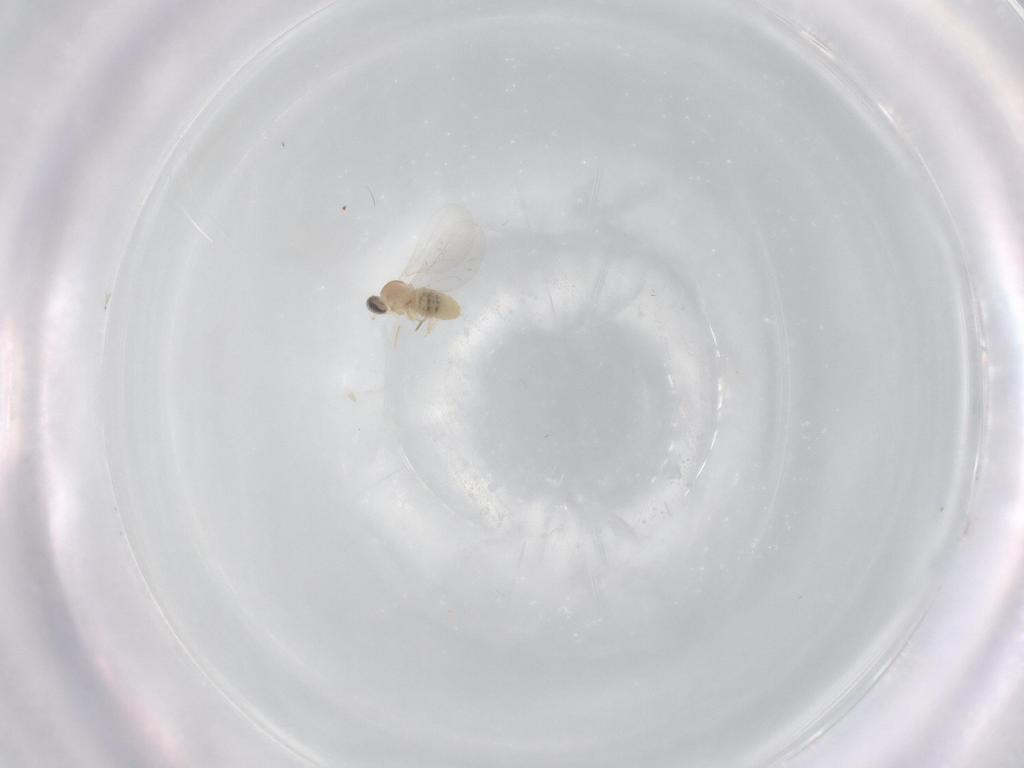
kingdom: Animalia
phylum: Arthropoda
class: Insecta
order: Diptera
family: Cecidomyiidae
